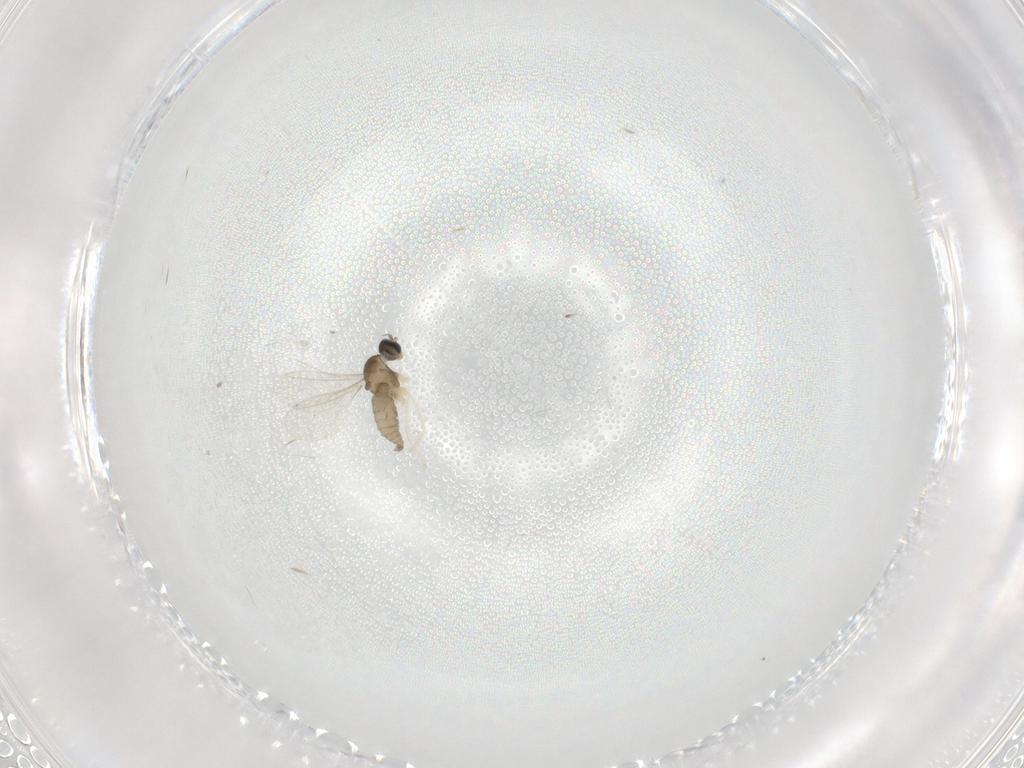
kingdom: Animalia
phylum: Arthropoda
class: Insecta
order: Diptera
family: Cecidomyiidae
